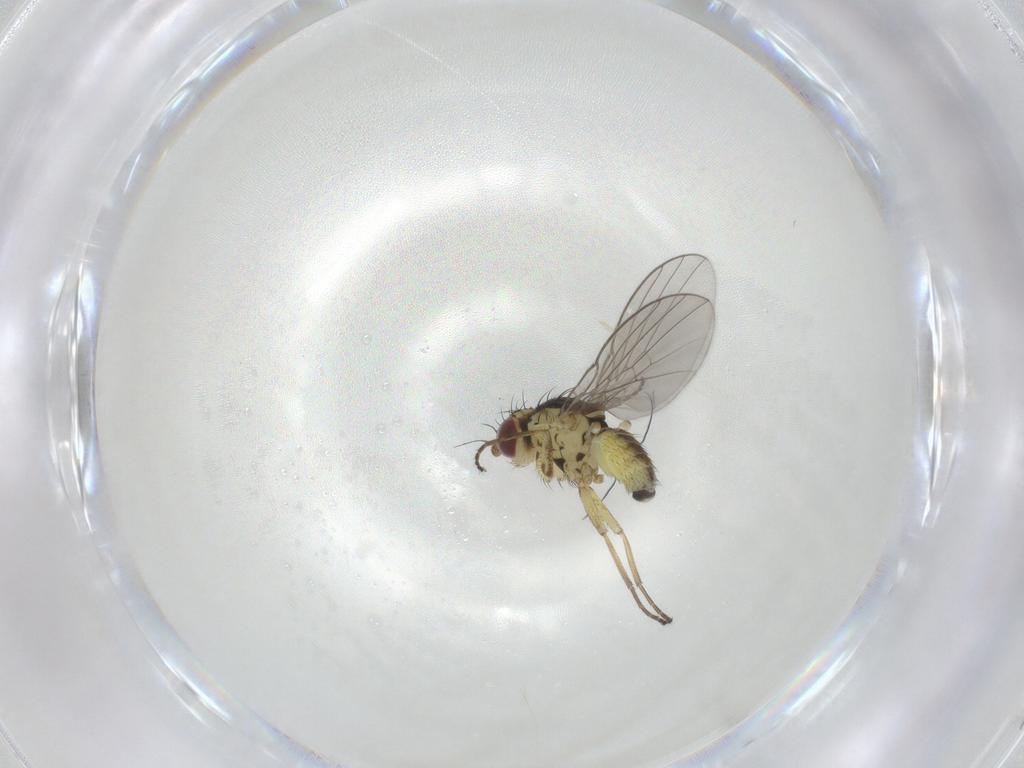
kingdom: Animalia
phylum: Arthropoda
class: Insecta
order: Diptera
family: Agromyzidae
